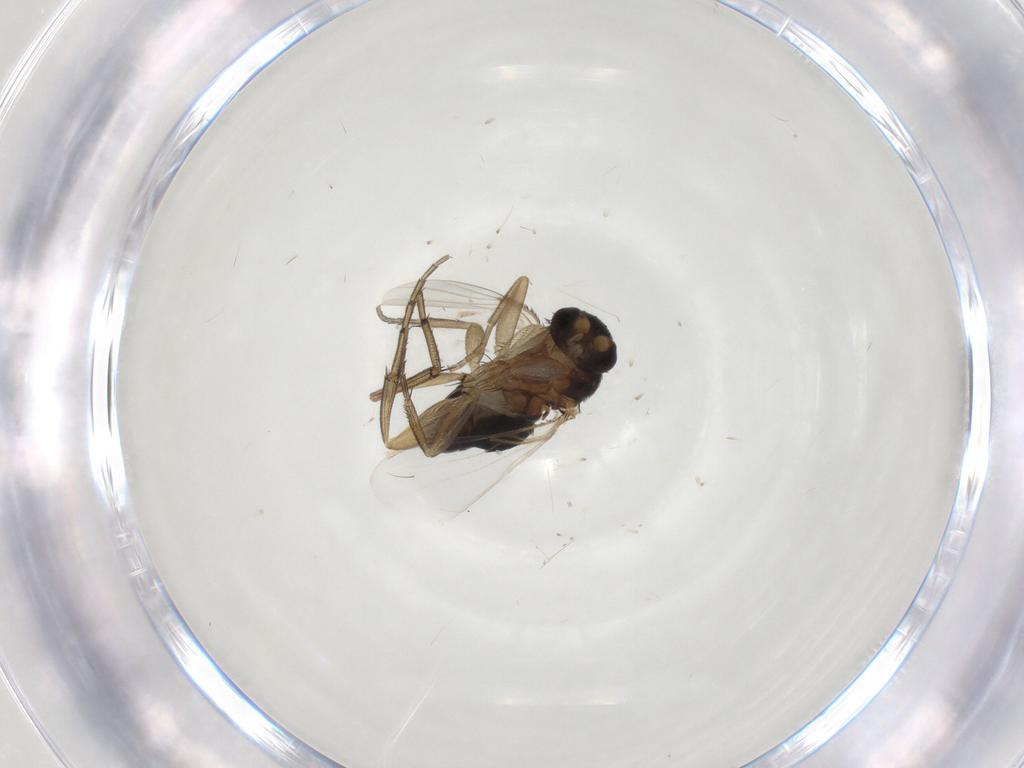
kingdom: Animalia
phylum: Arthropoda
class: Insecta
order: Diptera
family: Phoridae
